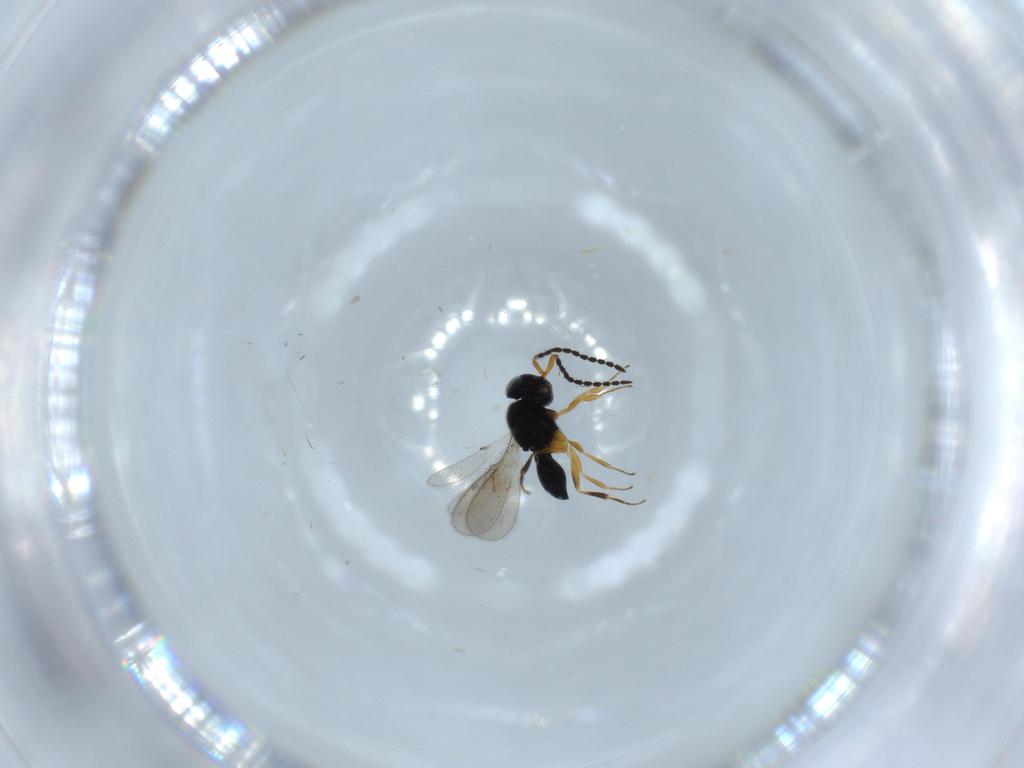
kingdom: Animalia
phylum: Arthropoda
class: Insecta
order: Hymenoptera
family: Scelionidae
